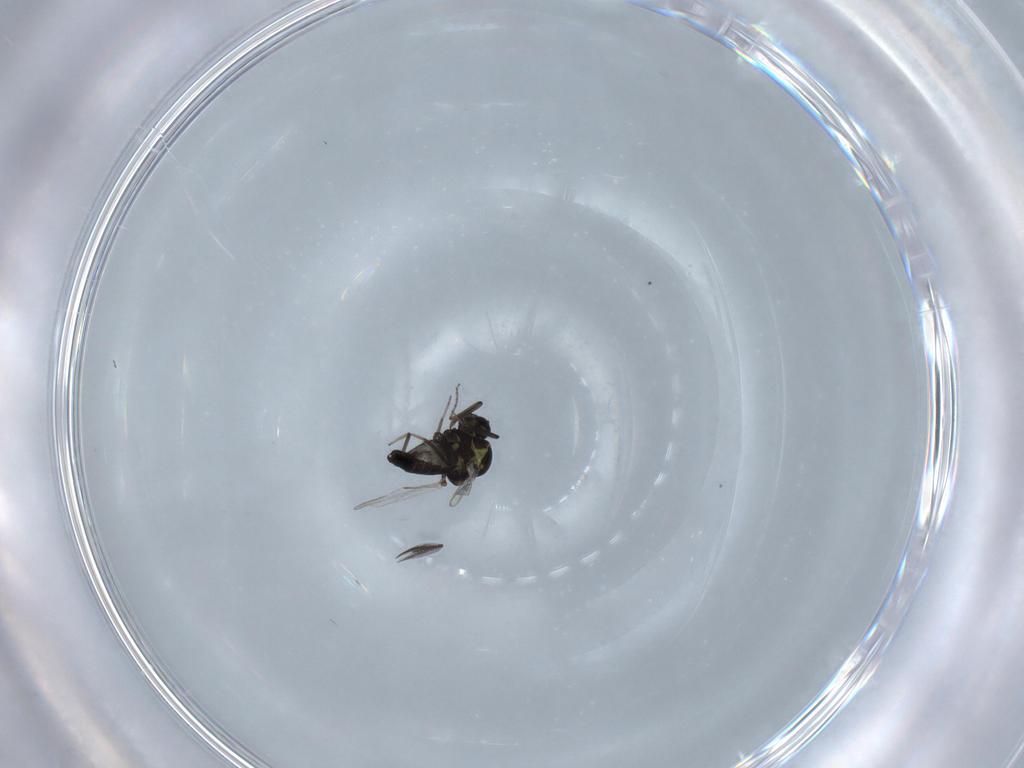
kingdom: Animalia
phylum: Arthropoda
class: Insecta
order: Diptera
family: Ceratopogonidae
